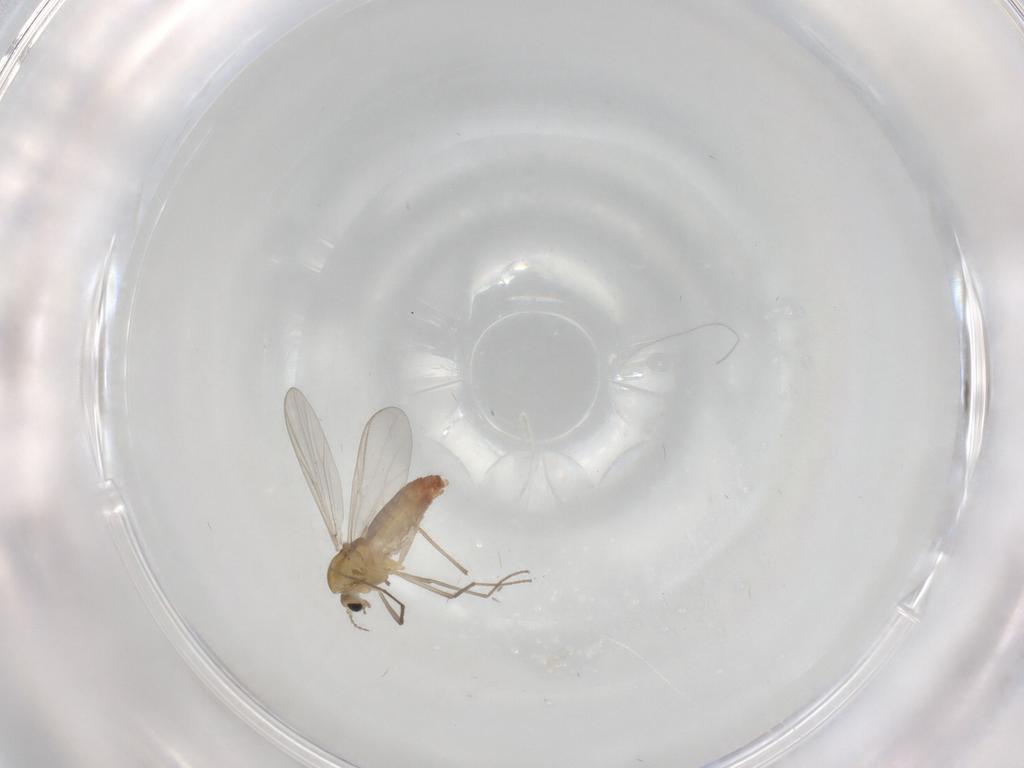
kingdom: Animalia
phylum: Arthropoda
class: Insecta
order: Diptera
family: Chironomidae
